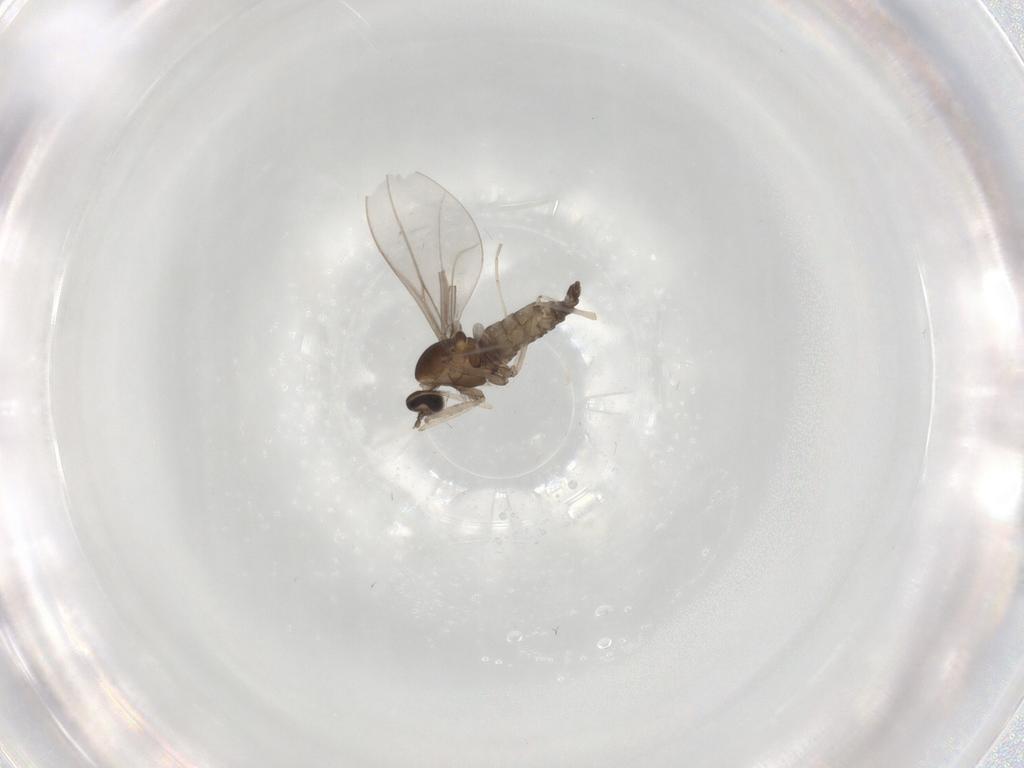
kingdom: Animalia
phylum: Arthropoda
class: Insecta
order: Diptera
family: Cecidomyiidae
